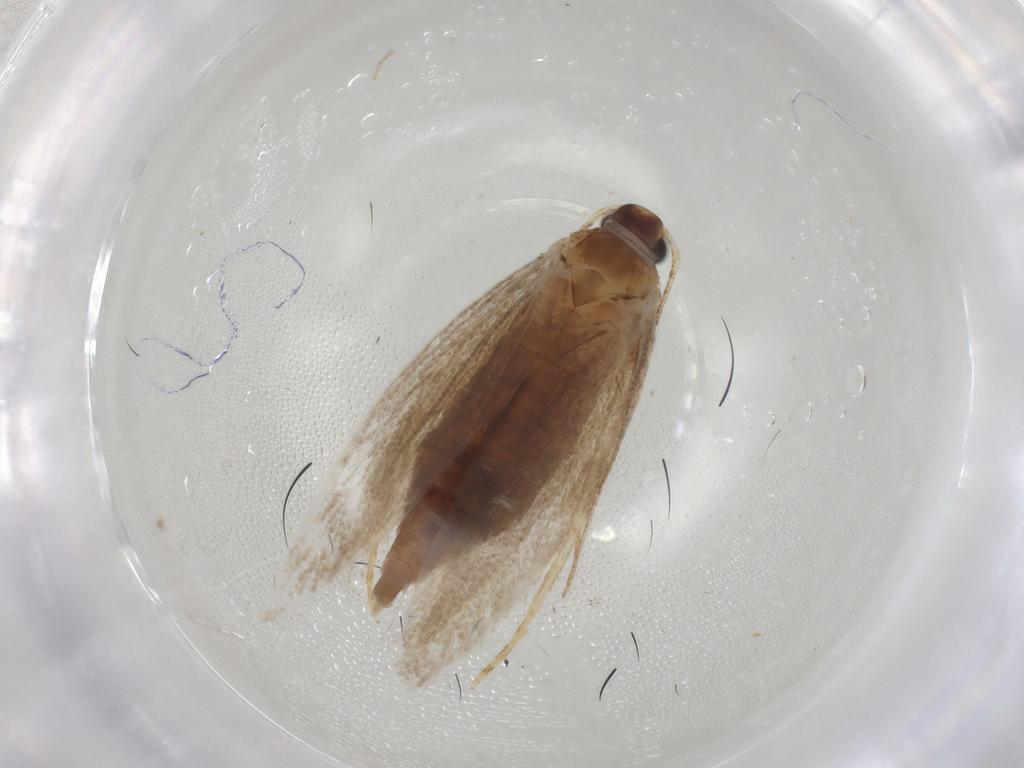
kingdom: Animalia
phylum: Arthropoda
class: Insecta
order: Lepidoptera
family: Gelechiidae
